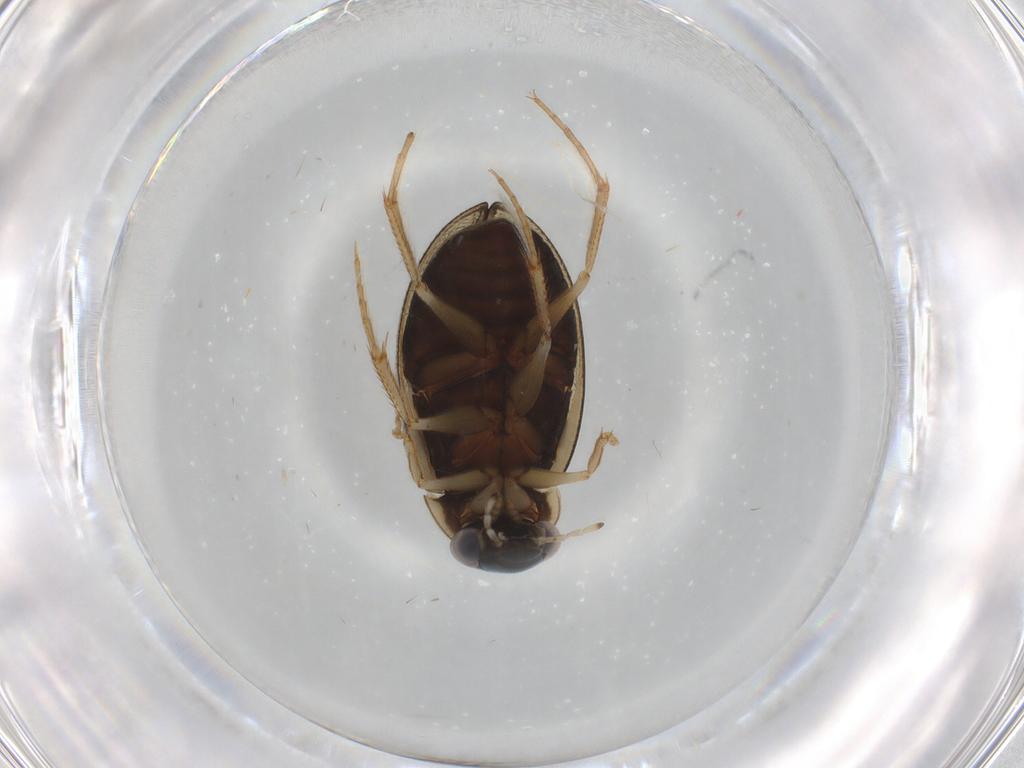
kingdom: Animalia
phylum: Arthropoda
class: Insecta
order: Coleoptera
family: Hydrophilidae
